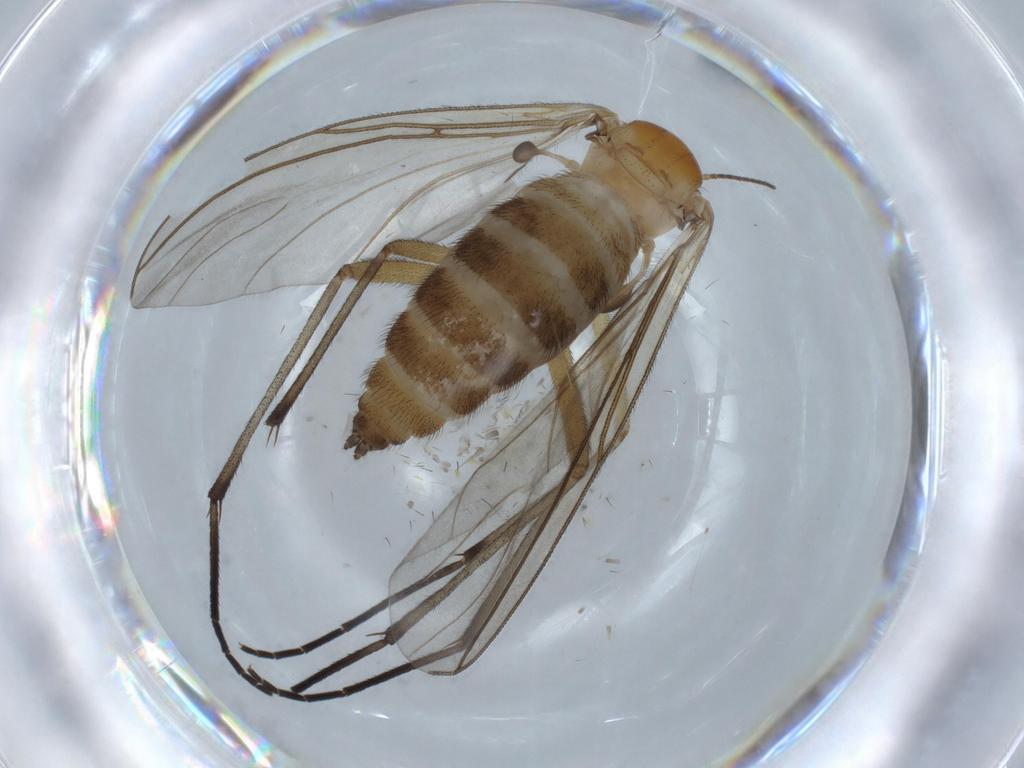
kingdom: Animalia
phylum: Arthropoda
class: Insecta
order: Diptera
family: Sciaridae
